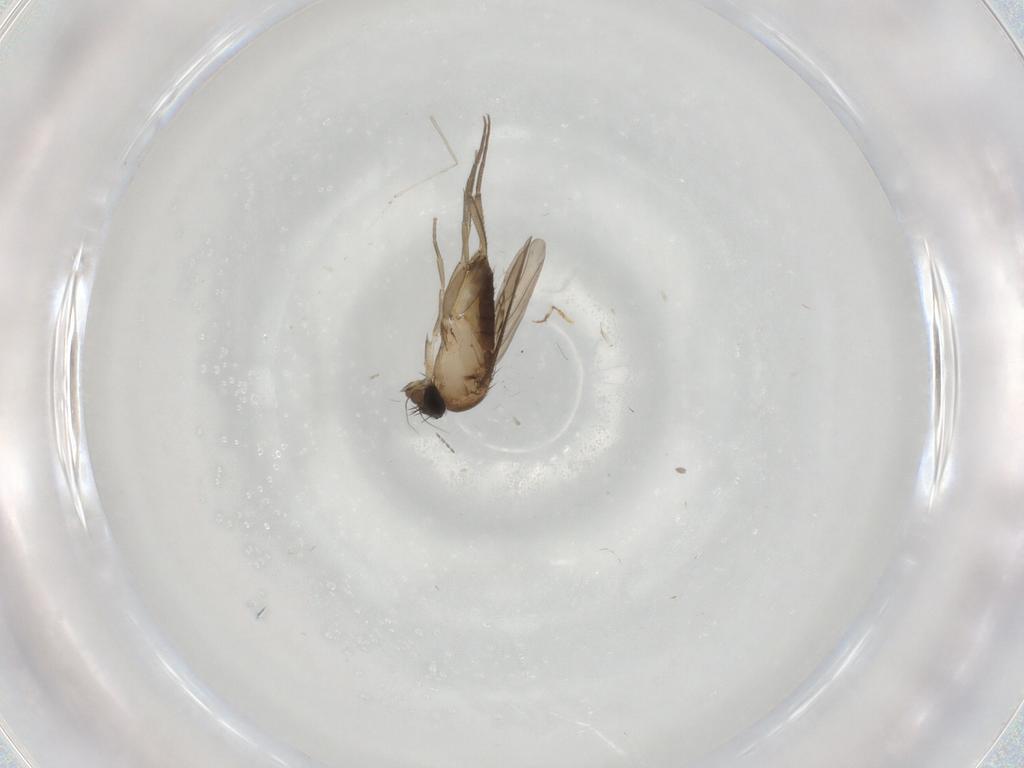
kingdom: Animalia
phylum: Arthropoda
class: Insecta
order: Diptera
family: Phoridae
